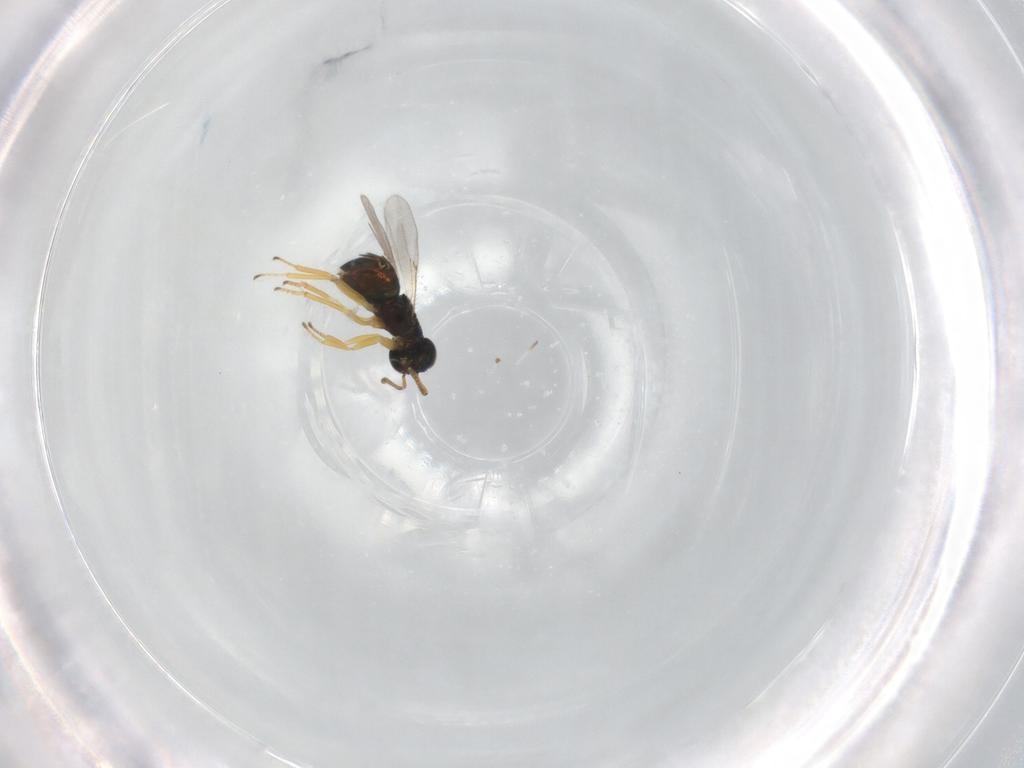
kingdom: Animalia
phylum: Arthropoda
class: Insecta
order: Hymenoptera
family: Encyrtidae
